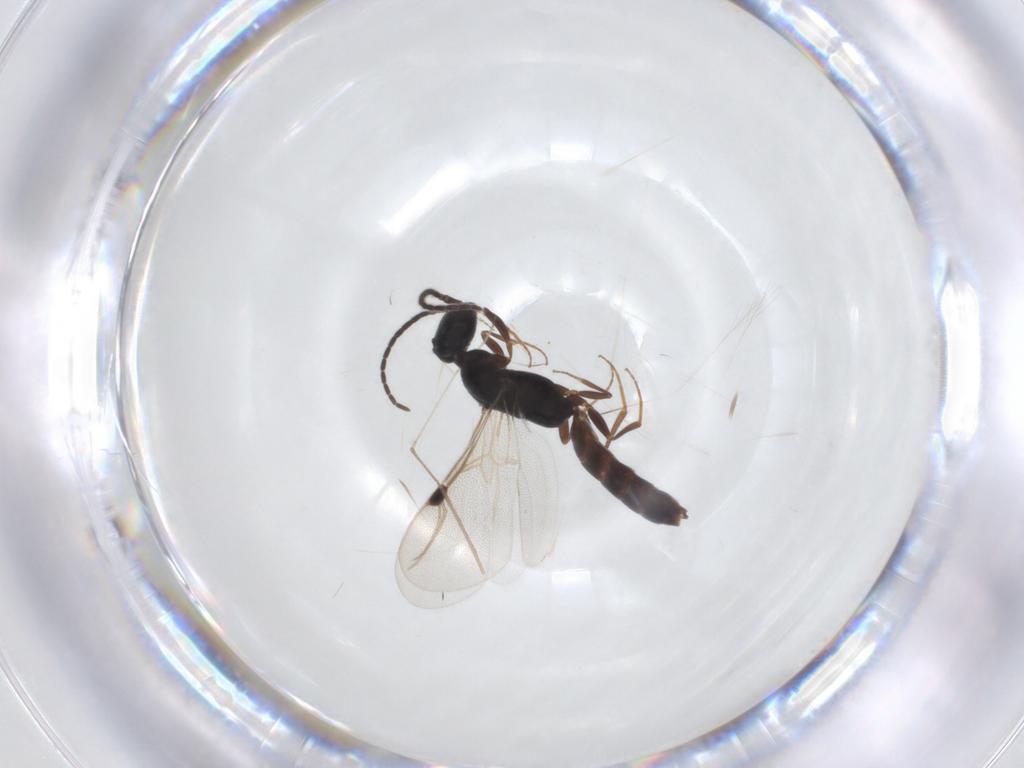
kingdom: Animalia
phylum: Arthropoda
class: Insecta
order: Hymenoptera
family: Bethylidae
